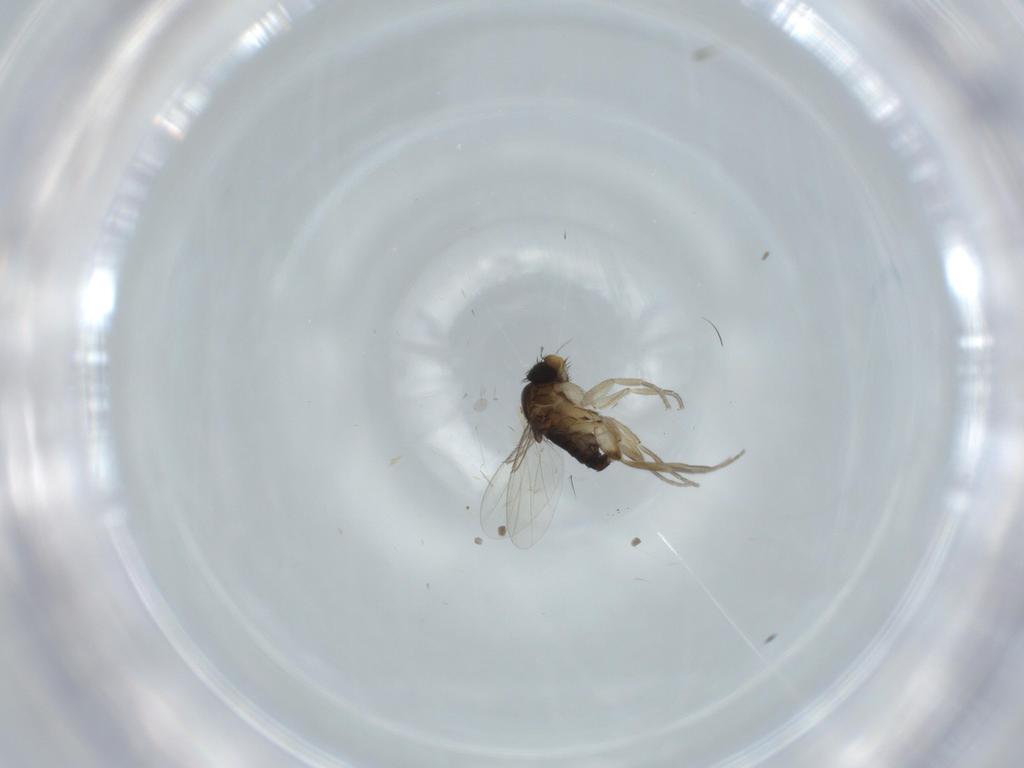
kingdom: Animalia
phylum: Arthropoda
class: Insecta
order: Diptera
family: Phoridae
